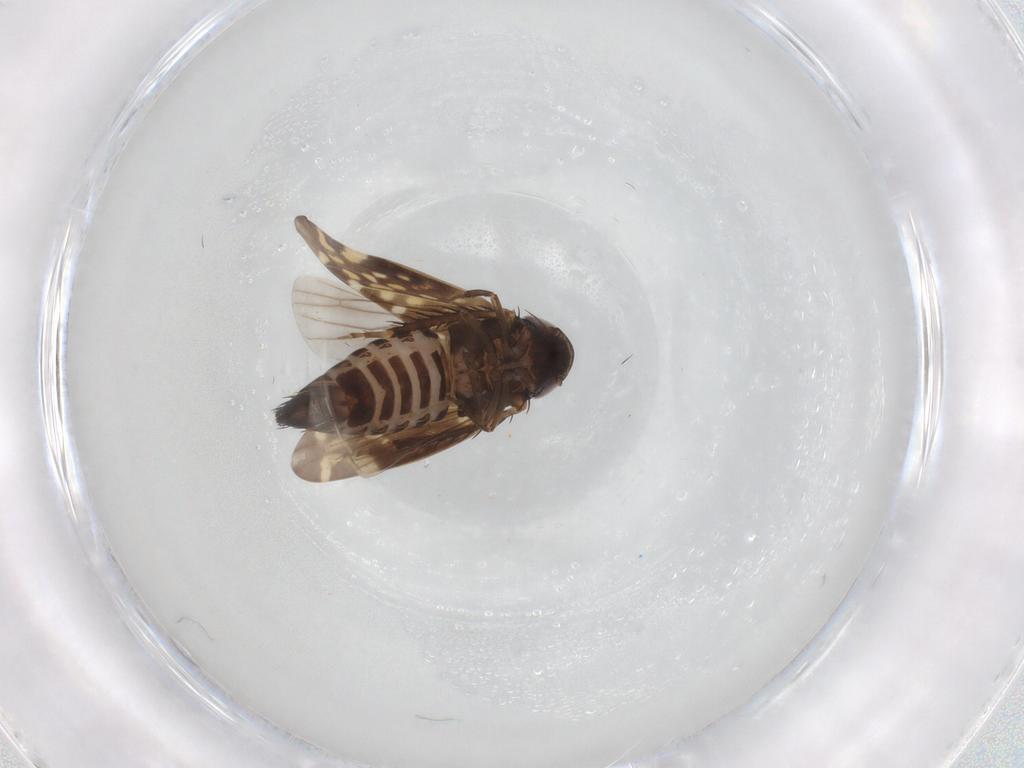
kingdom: Animalia
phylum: Arthropoda
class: Insecta
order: Hemiptera
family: Cicadellidae
